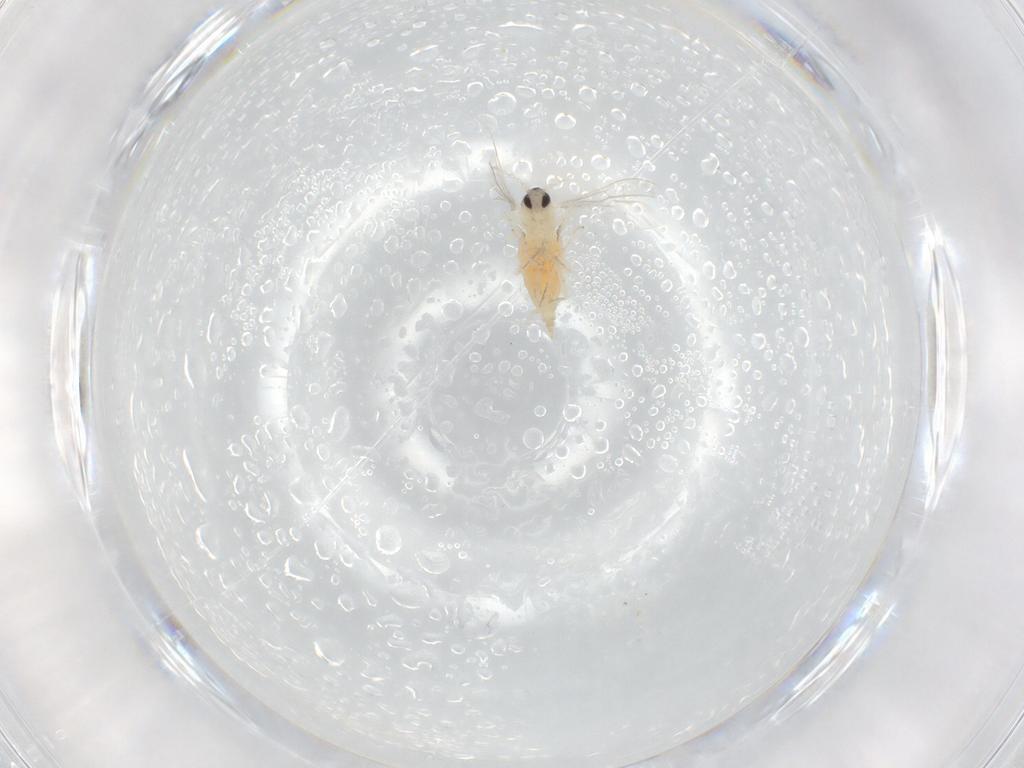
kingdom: Animalia
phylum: Arthropoda
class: Insecta
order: Diptera
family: Cecidomyiidae
